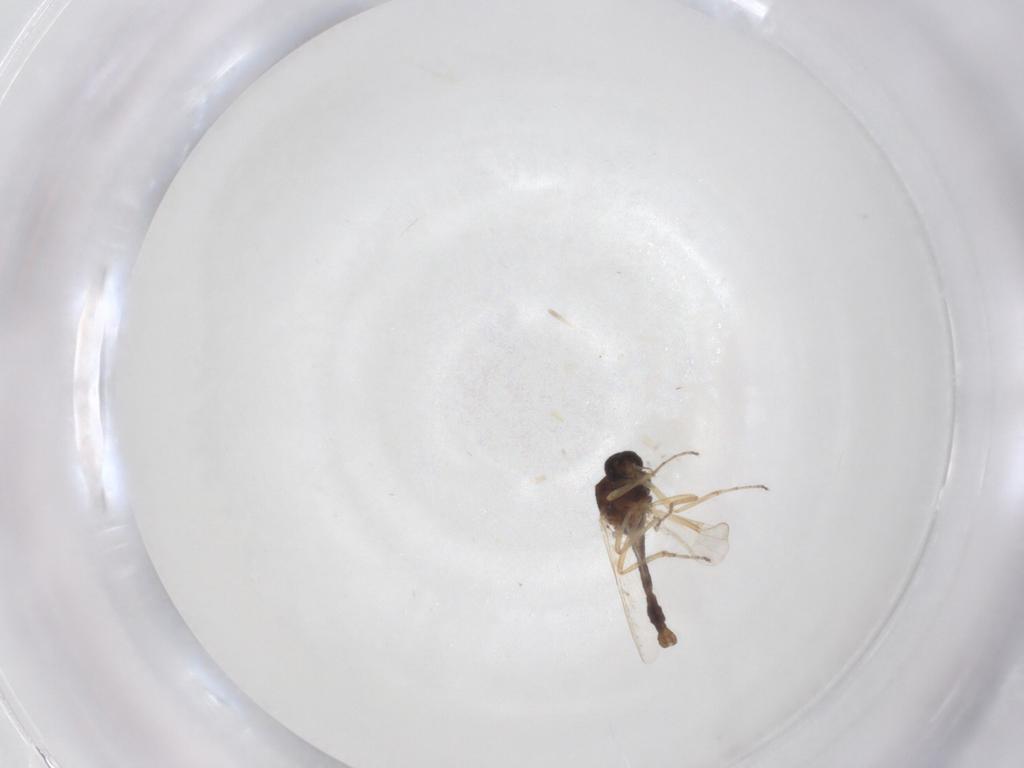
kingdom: Animalia
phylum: Arthropoda
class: Insecta
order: Diptera
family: Ceratopogonidae
